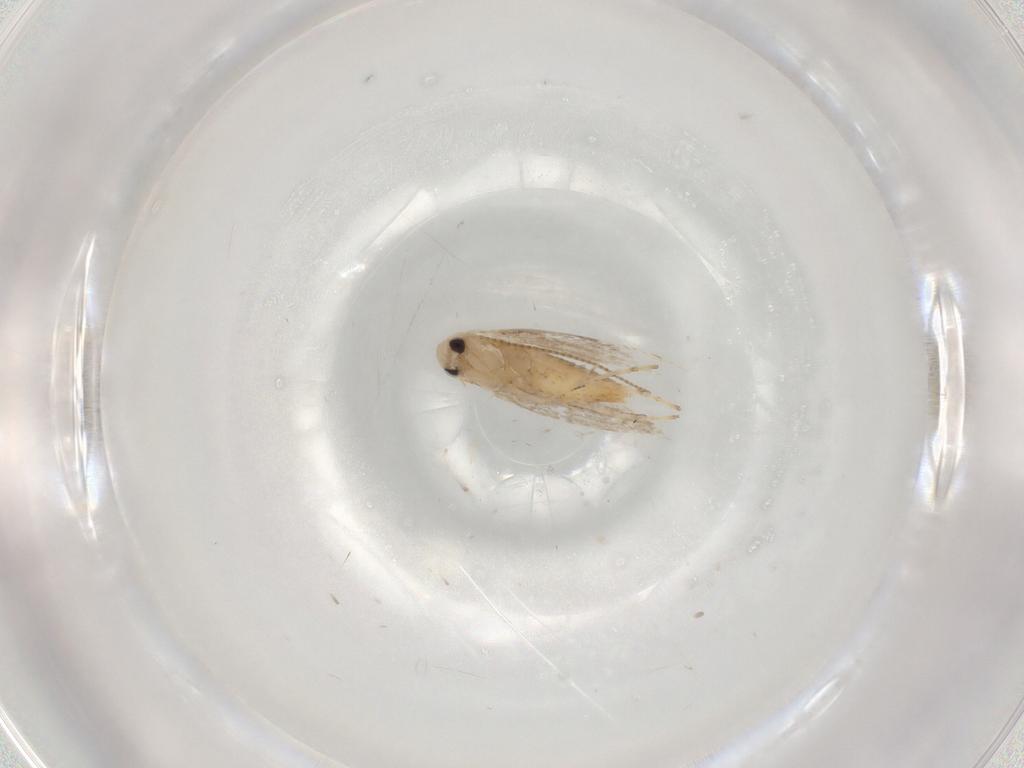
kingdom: Animalia
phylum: Arthropoda
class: Insecta
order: Lepidoptera
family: Gracillariidae
